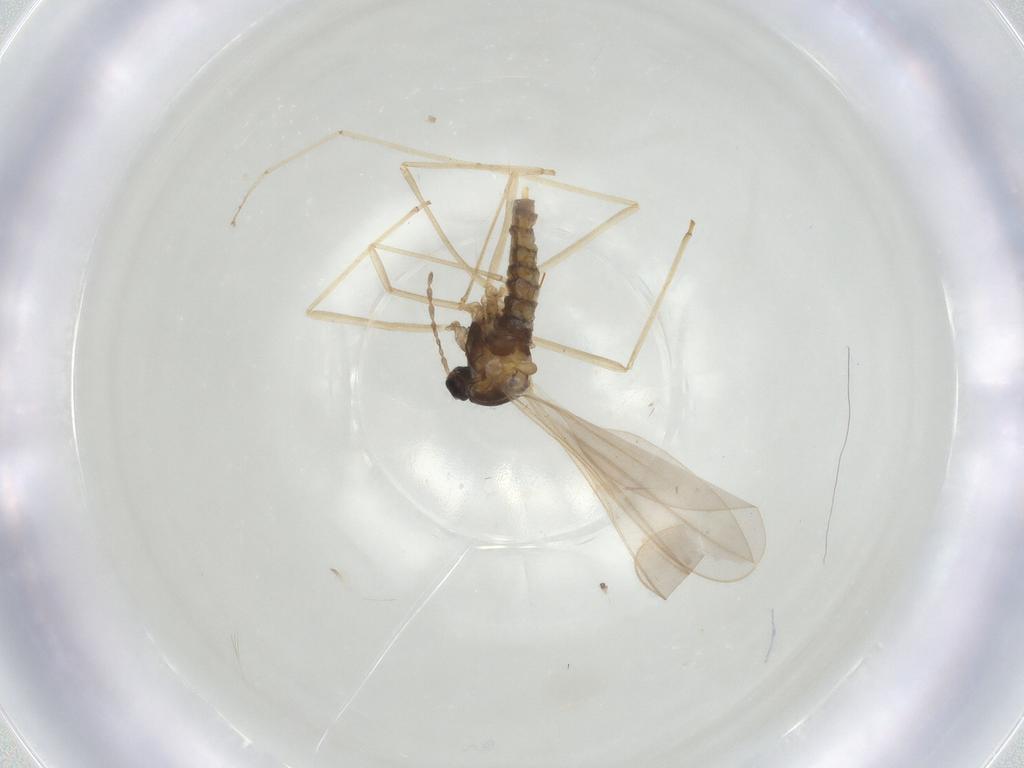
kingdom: Animalia
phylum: Arthropoda
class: Insecta
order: Diptera
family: Cecidomyiidae
